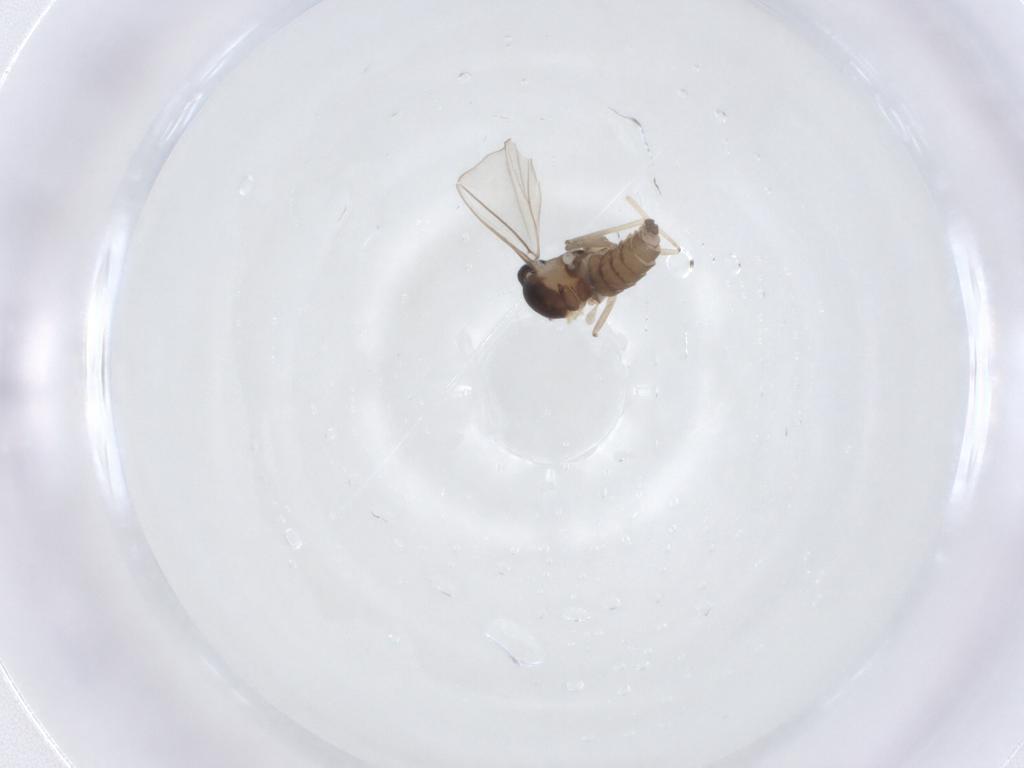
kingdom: Animalia
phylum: Arthropoda
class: Insecta
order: Diptera
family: Cecidomyiidae
